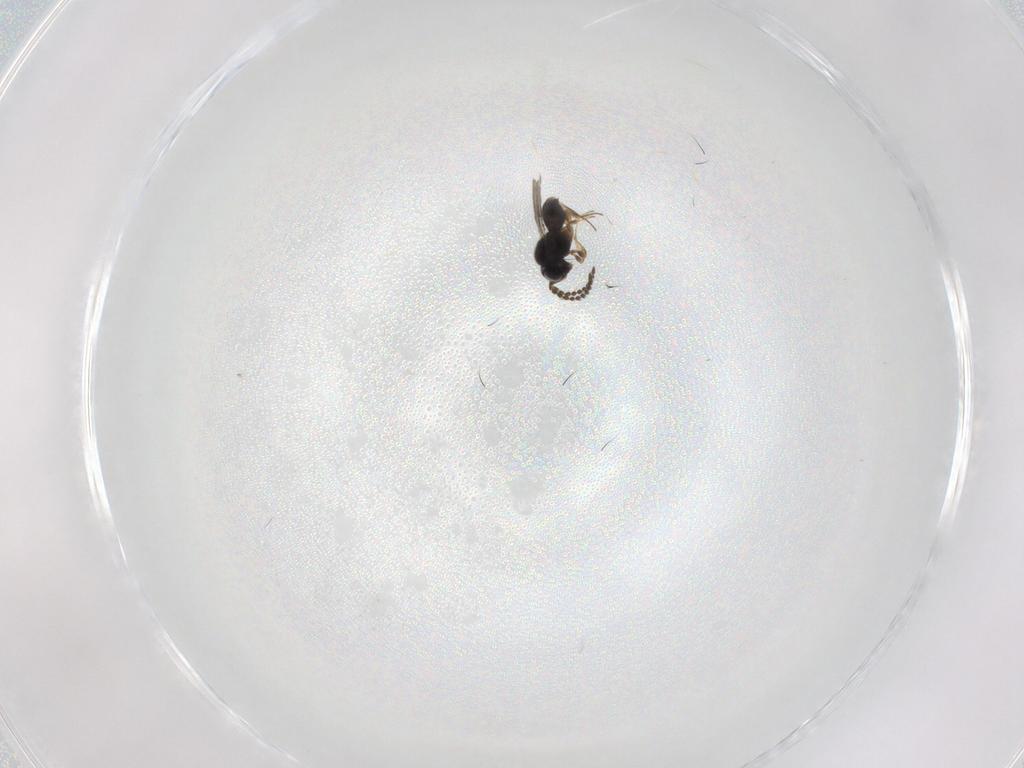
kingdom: Animalia
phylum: Arthropoda
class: Insecta
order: Hymenoptera
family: Scelionidae
